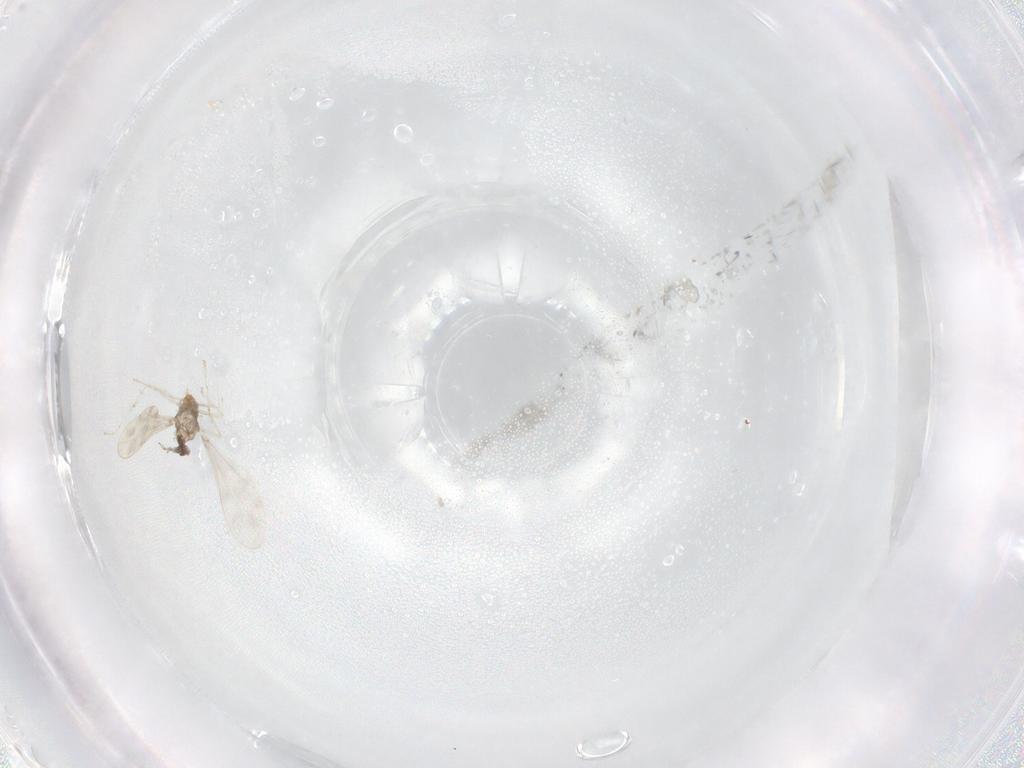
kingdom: Animalia
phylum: Arthropoda
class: Insecta
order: Diptera
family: Cecidomyiidae
